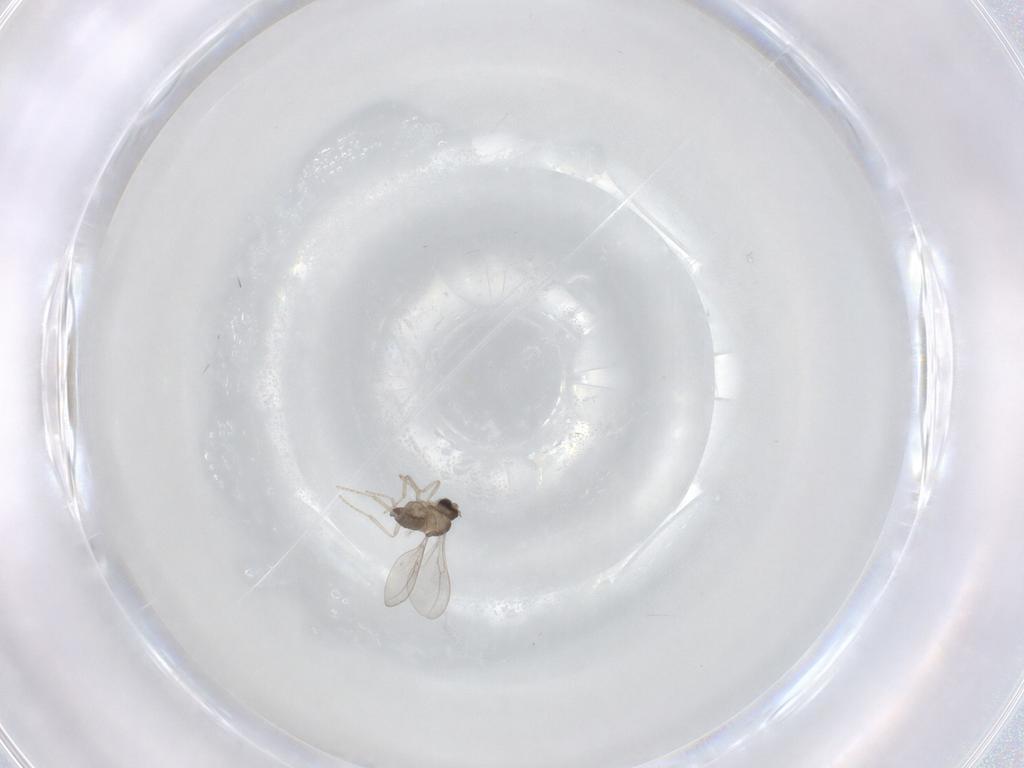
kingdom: Animalia
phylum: Arthropoda
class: Insecta
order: Diptera
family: Cecidomyiidae
